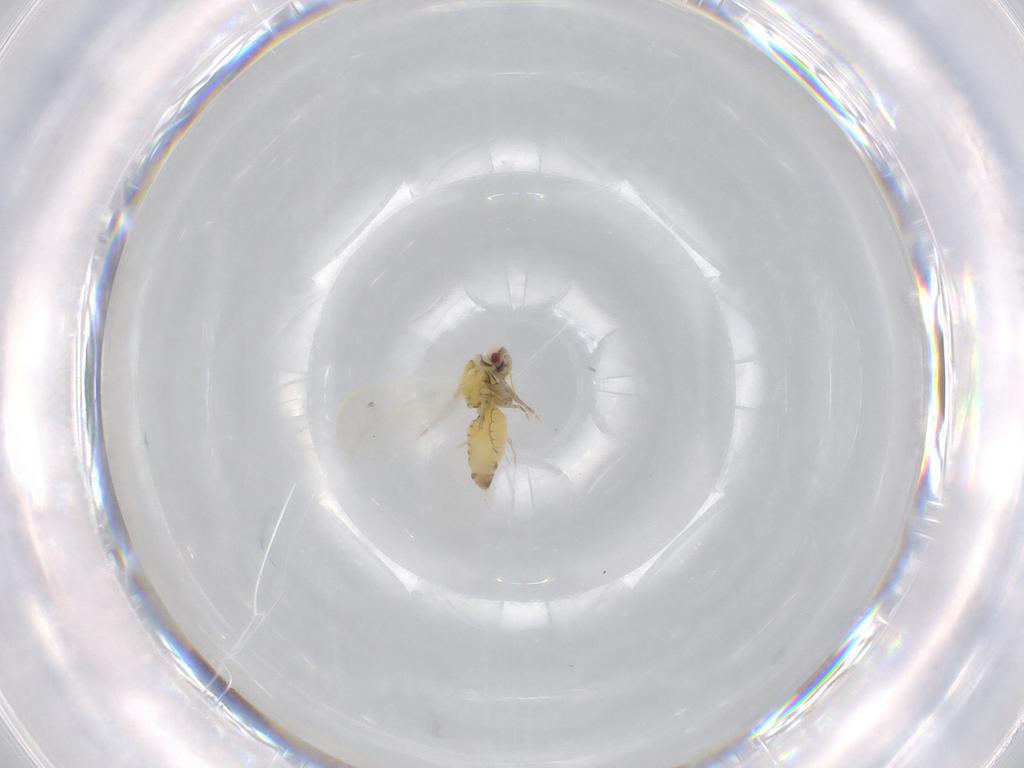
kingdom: Animalia
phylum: Arthropoda
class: Insecta
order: Hemiptera
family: Aleyrodidae
